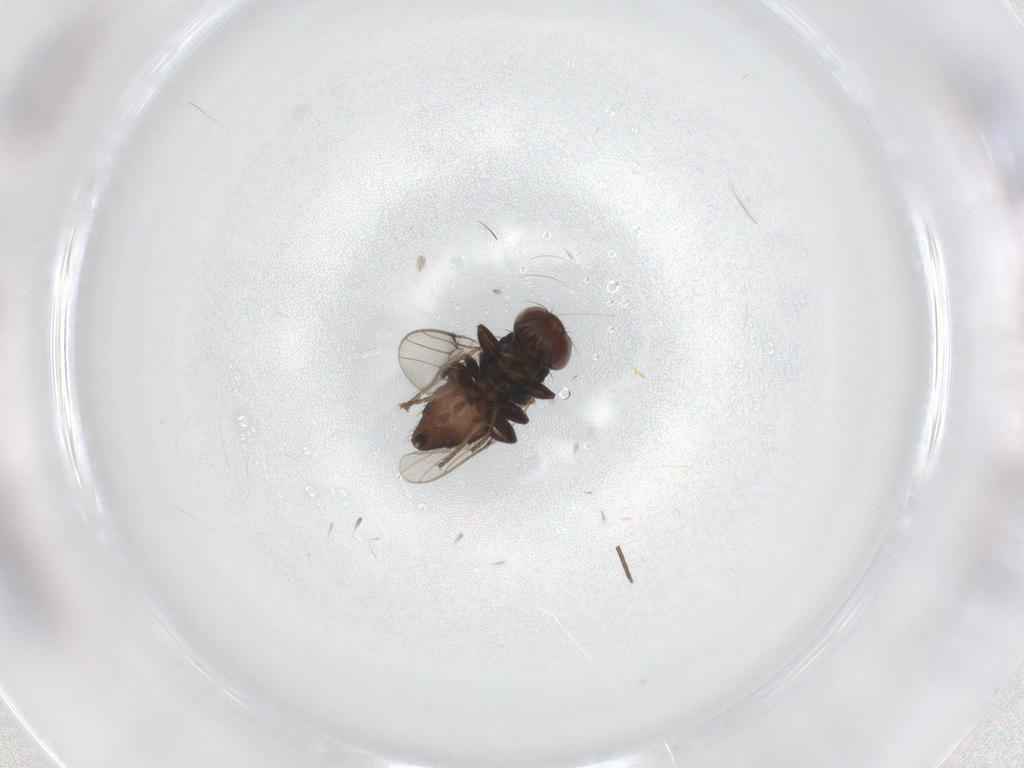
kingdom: Animalia
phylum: Arthropoda
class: Insecta
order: Diptera
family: Chloropidae
